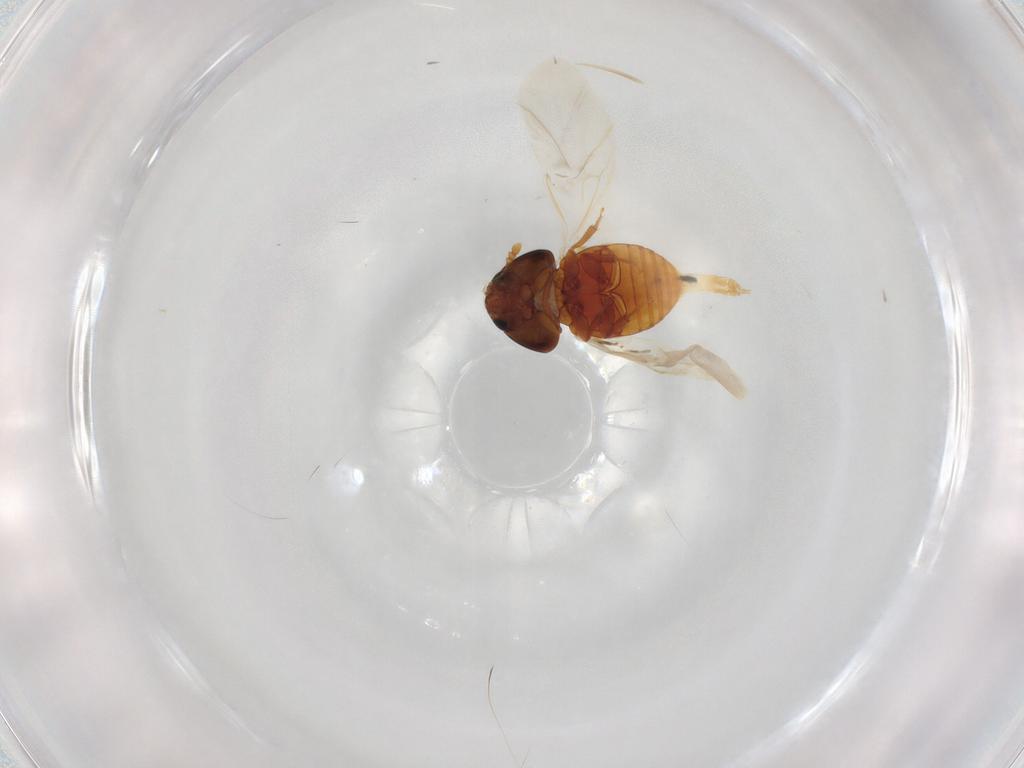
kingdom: Animalia
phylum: Arthropoda
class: Insecta
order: Coleoptera
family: Phalacridae
